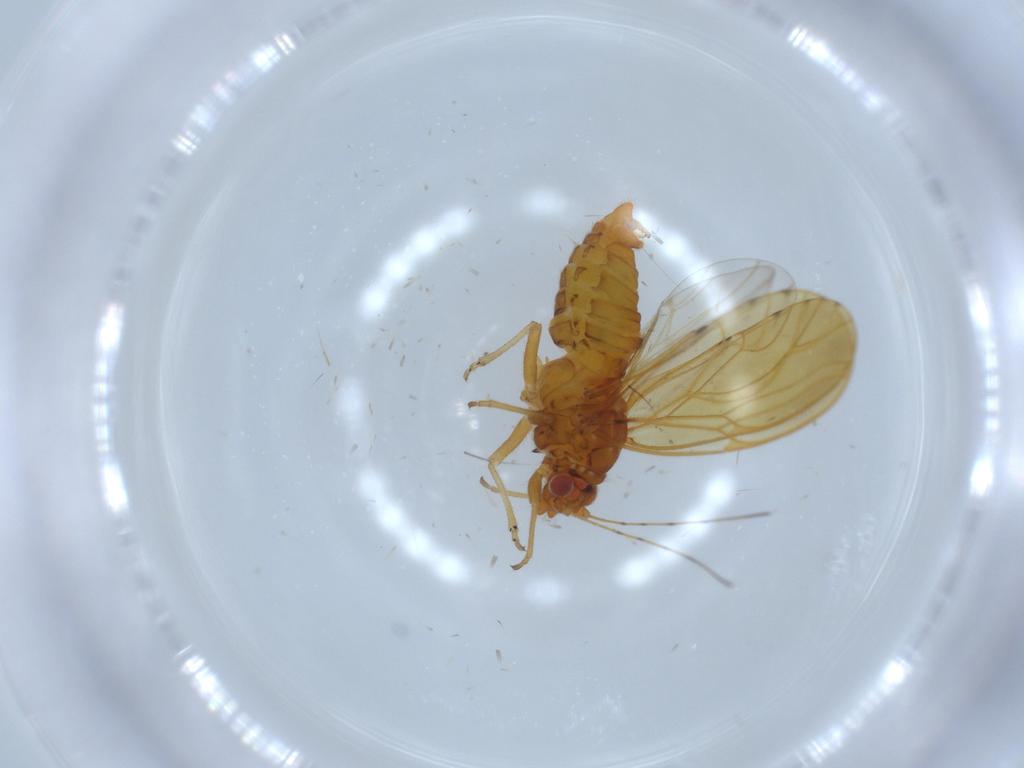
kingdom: Animalia
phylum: Arthropoda
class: Insecta
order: Hemiptera
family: Psylloidea_incertae_sedis
